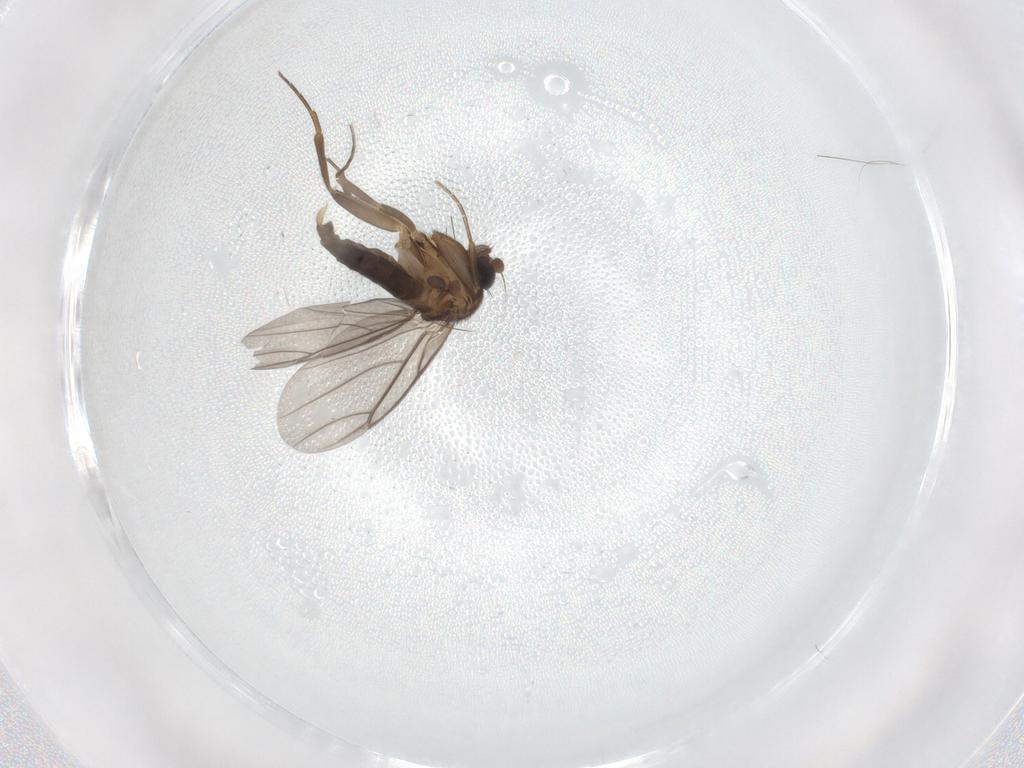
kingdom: Animalia
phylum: Arthropoda
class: Insecta
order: Diptera
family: Phoridae
